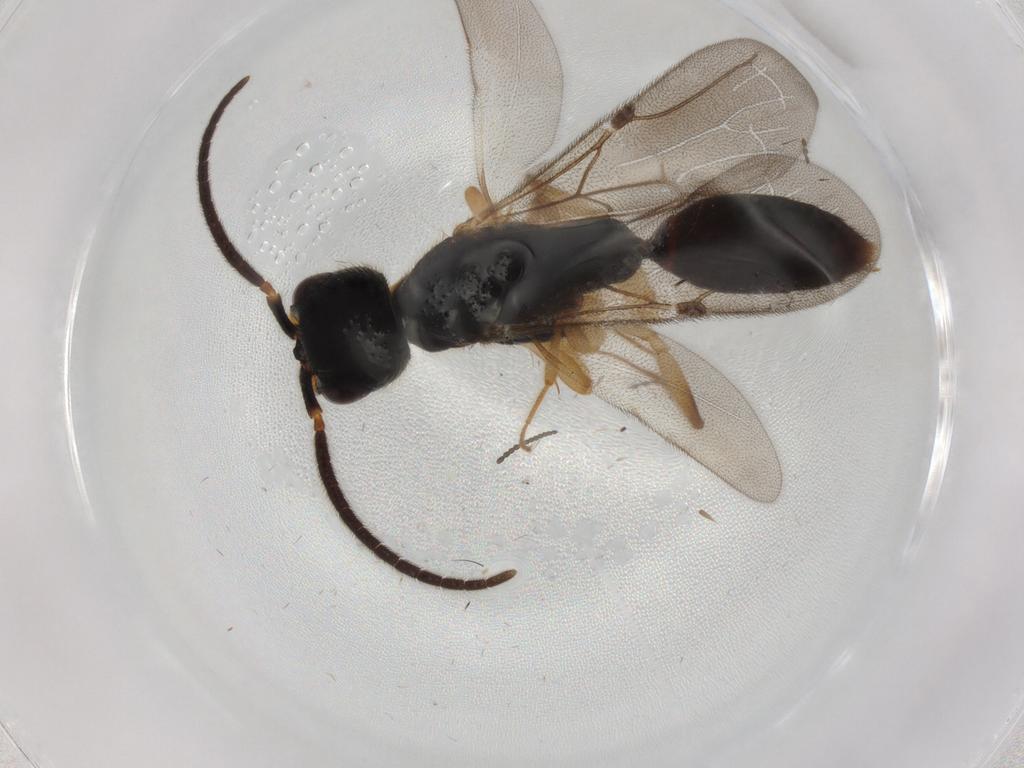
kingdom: Animalia
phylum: Arthropoda
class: Insecta
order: Hymenoptera
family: Bethylidae
